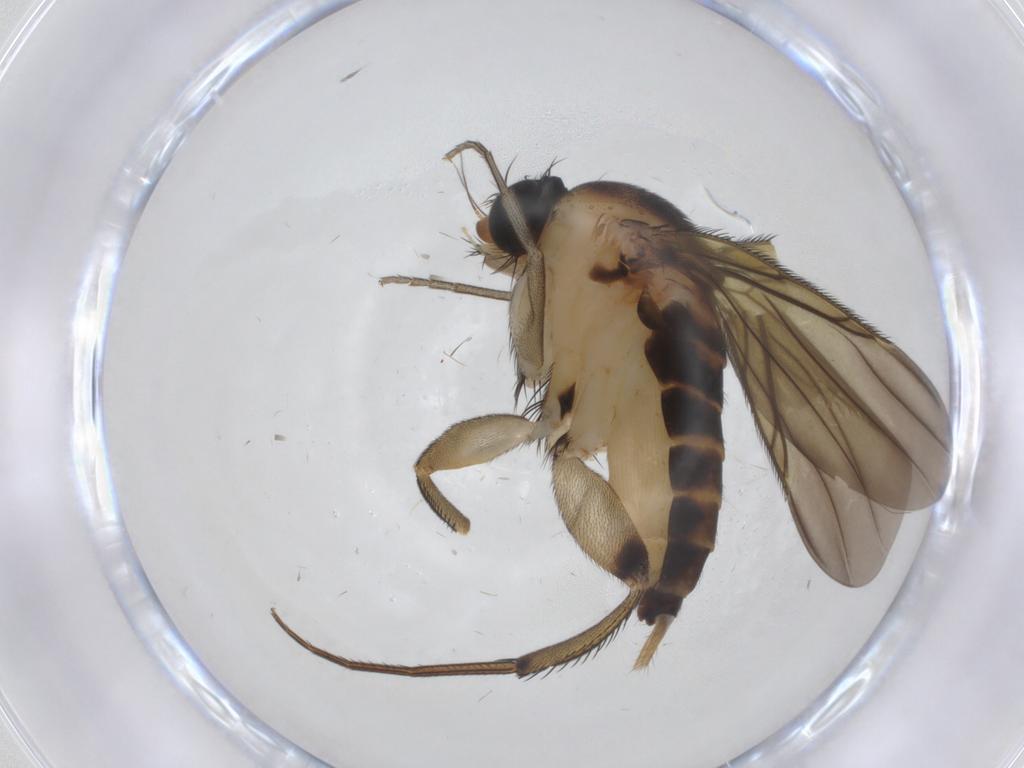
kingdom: Animalia
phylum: Arthropoda
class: Insecta
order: Diptera
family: Phoridae
